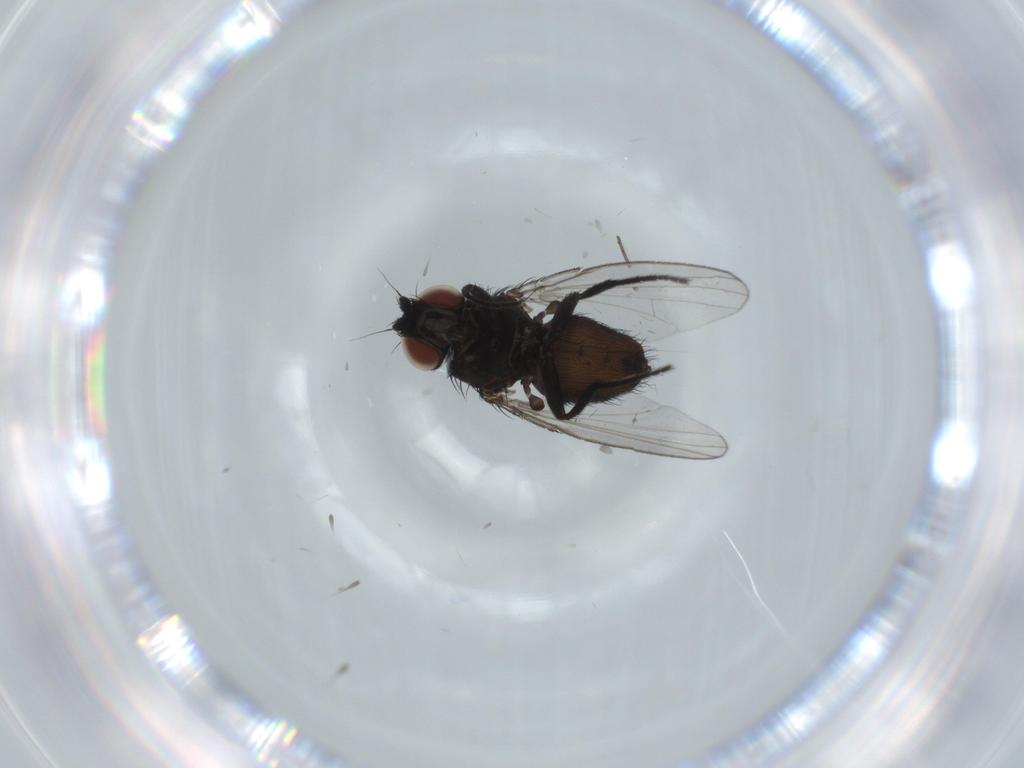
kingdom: Animalia
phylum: Arthropoda
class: Insecta
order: Diptera
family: Milichiidae
